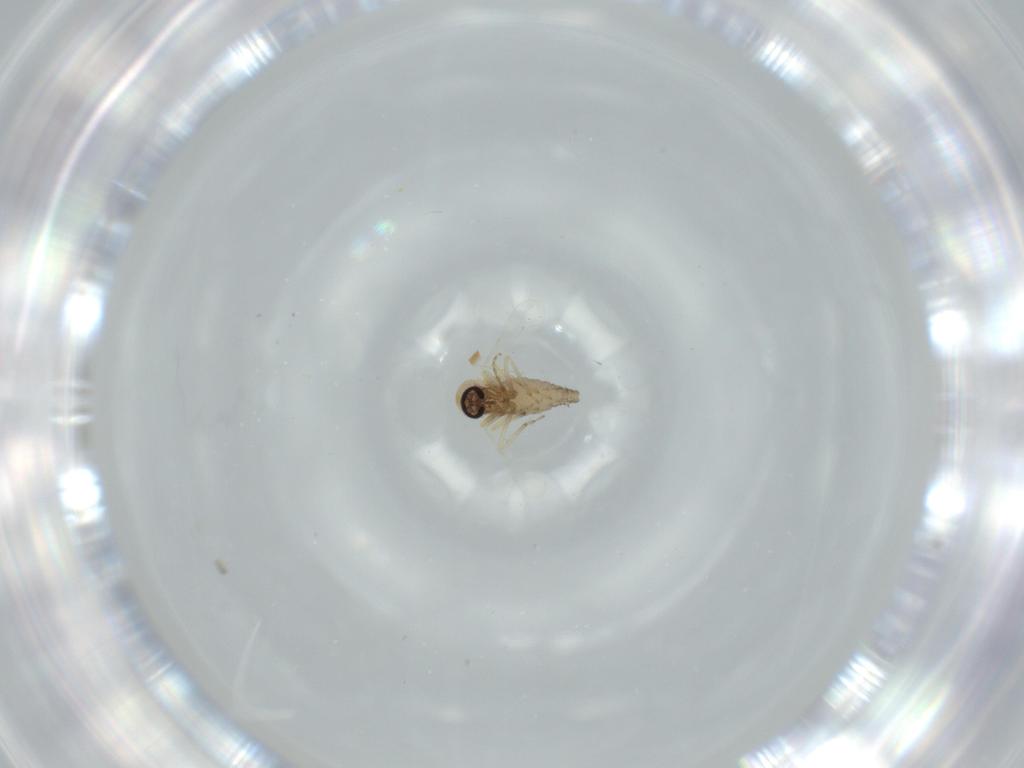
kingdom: Animalia
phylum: Arthropoda
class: Insecta
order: Diptera
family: Ceratopogonidae
